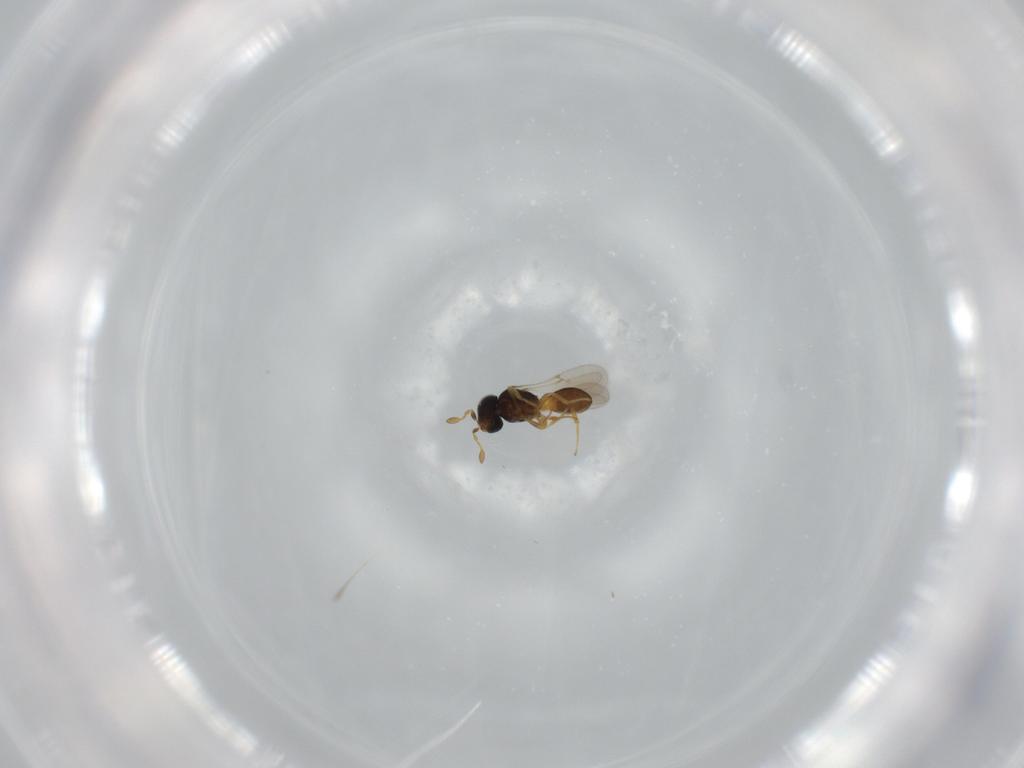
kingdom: Animalia
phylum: Arthropoda
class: Insecta
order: Hymenoptera
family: Scelionidae
